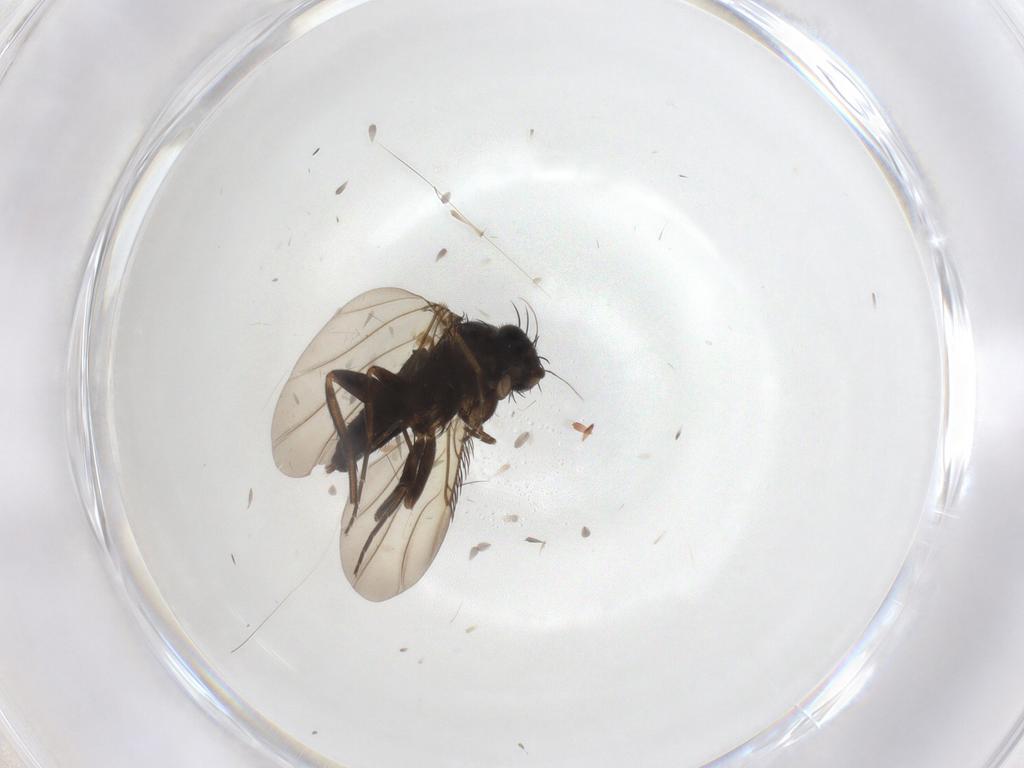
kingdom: Animalia
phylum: Arthropoda
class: Insecta
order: Diptera
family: Phoridae
